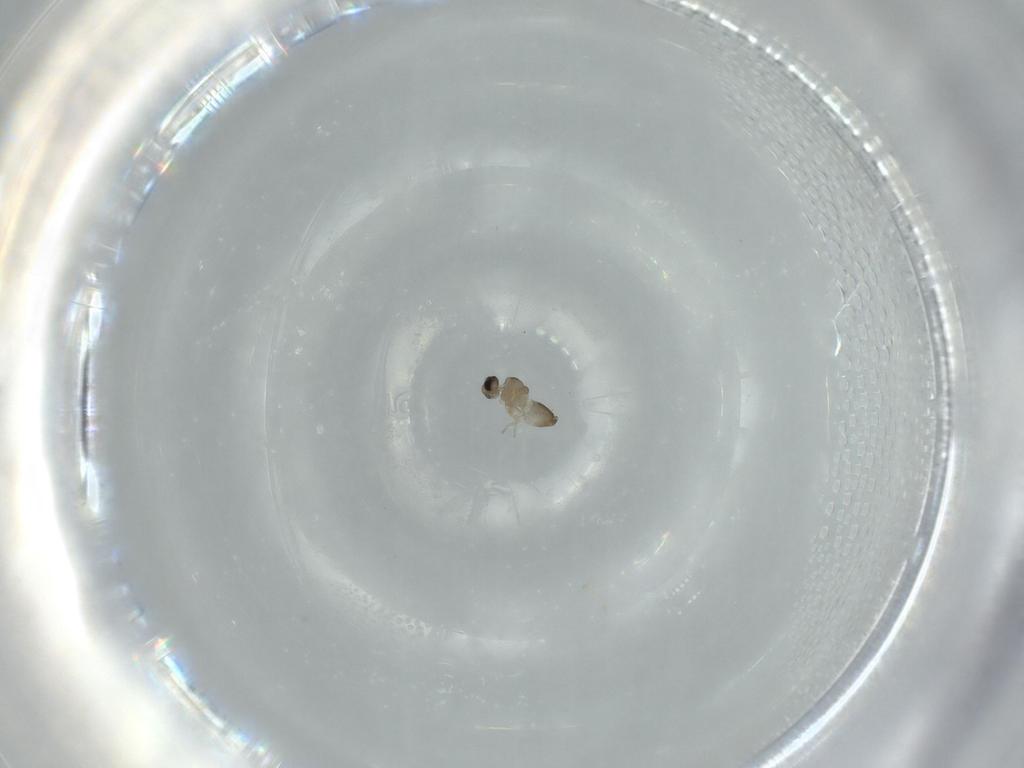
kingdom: Animalia
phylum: Arthropoda
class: Insecta
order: Diptera
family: Cecidomyiidae
